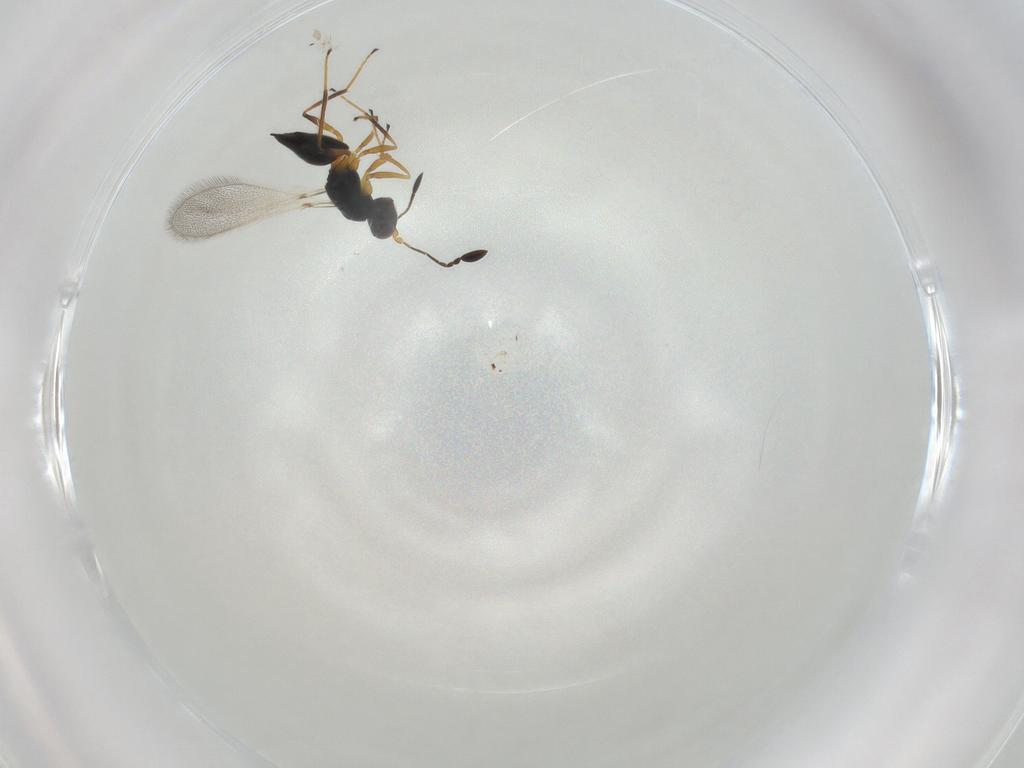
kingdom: Animalia
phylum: Arthropoda
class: Insecta
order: Hymenoptera
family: Mymaridae
